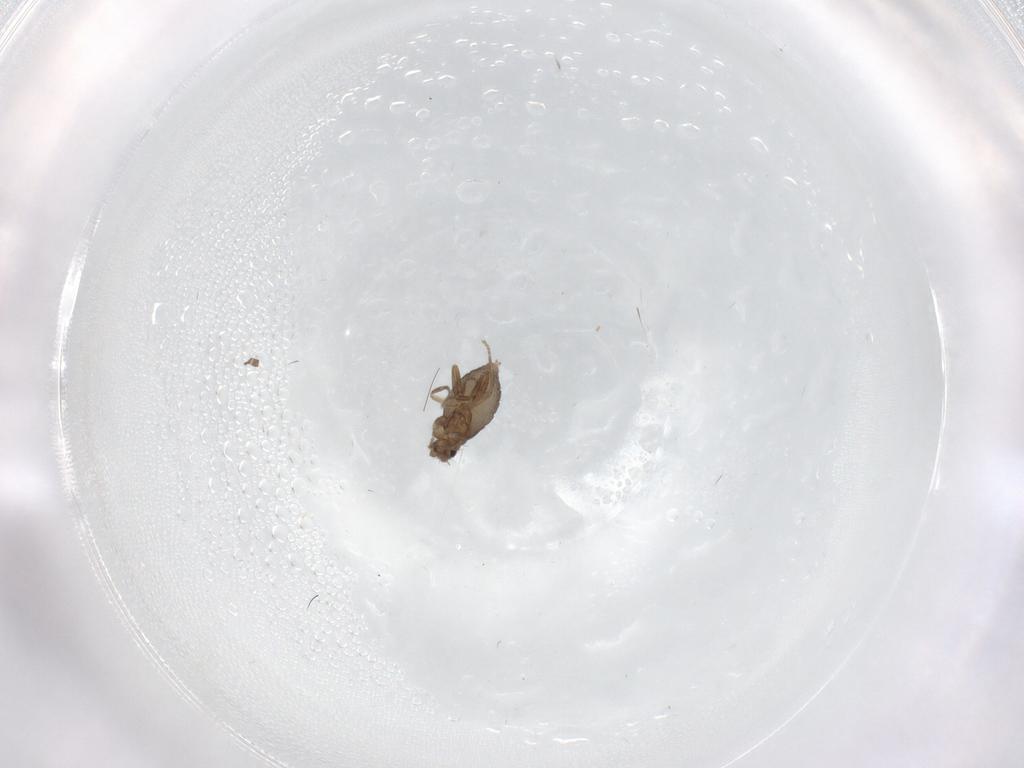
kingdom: Animalia
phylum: Arthropoda
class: Insecta
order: Diptera
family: Phoridae
